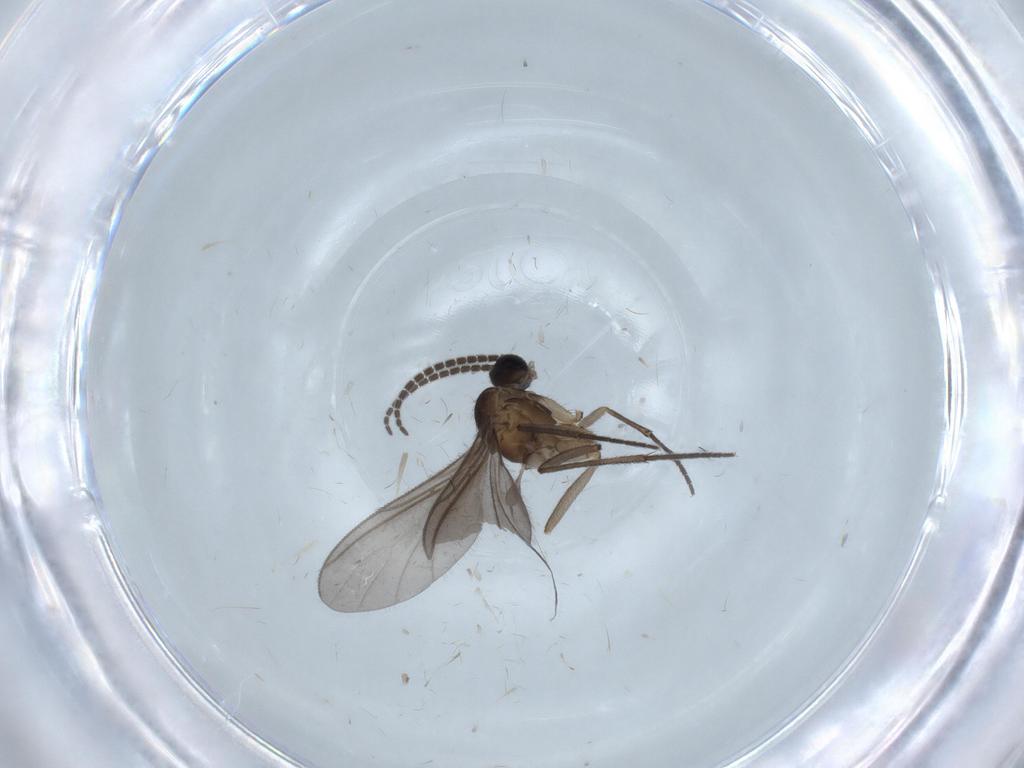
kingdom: Animalia
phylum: Arthropoda
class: Insecta
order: Diptera
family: Sciaridae
